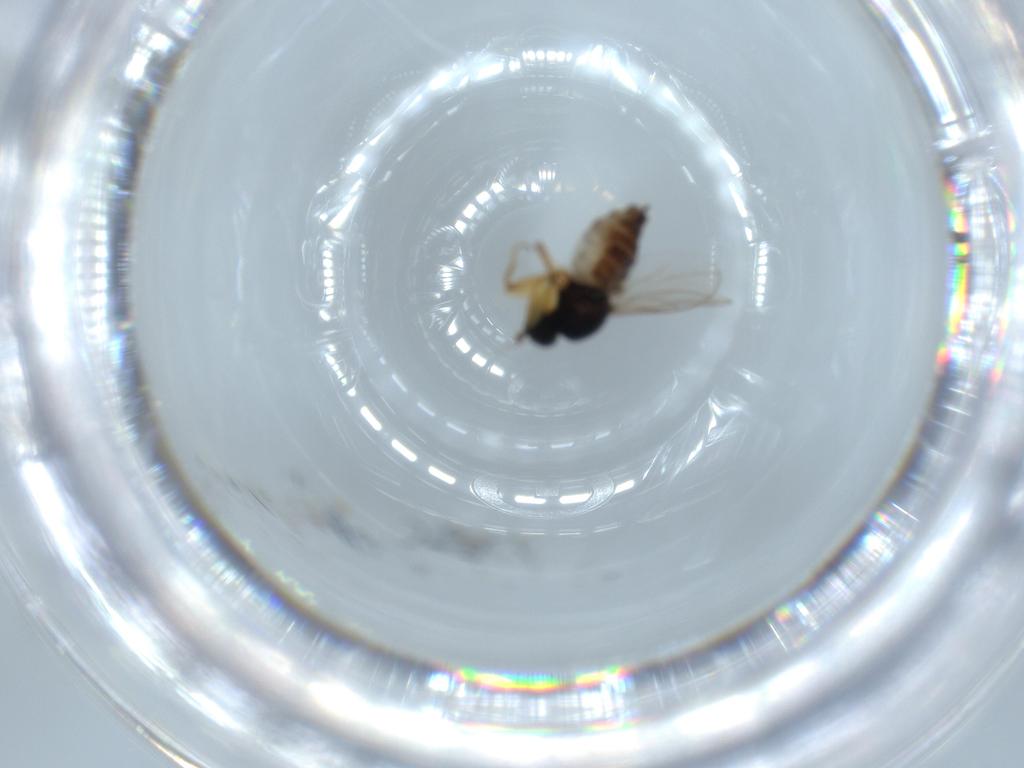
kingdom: Animalia
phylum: Arthropoda
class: Insecta
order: Diptera
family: Hybotidae
